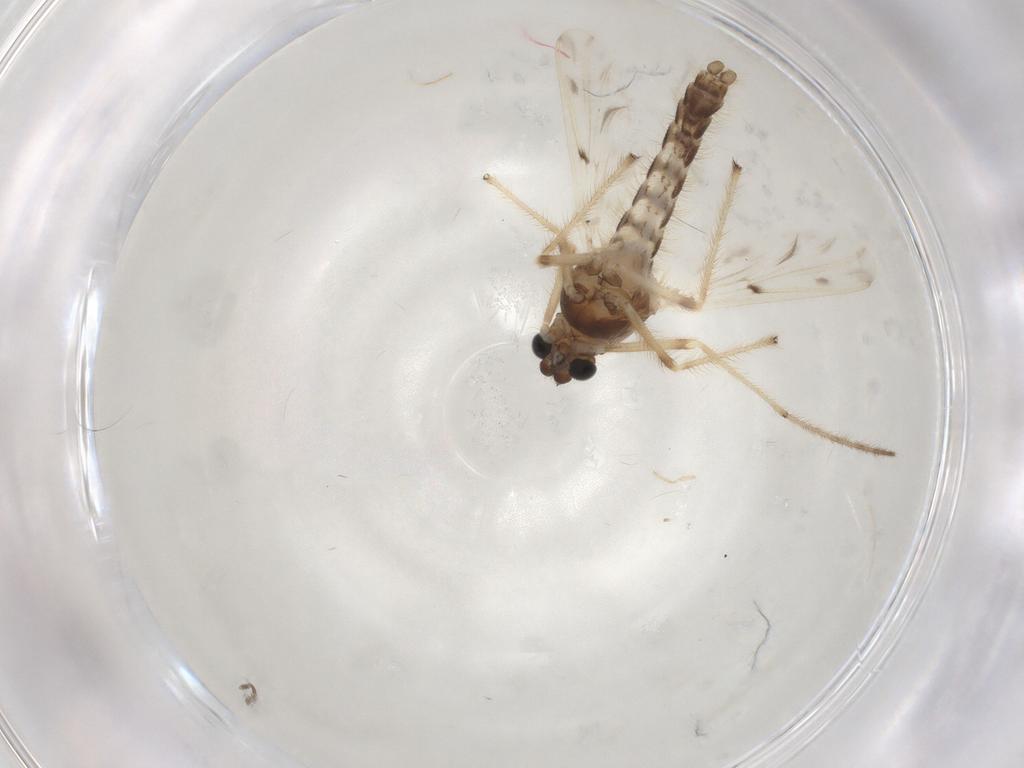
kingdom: Animalia
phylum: Arthropoda
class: Insecta
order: Diptera
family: Chironomidae
